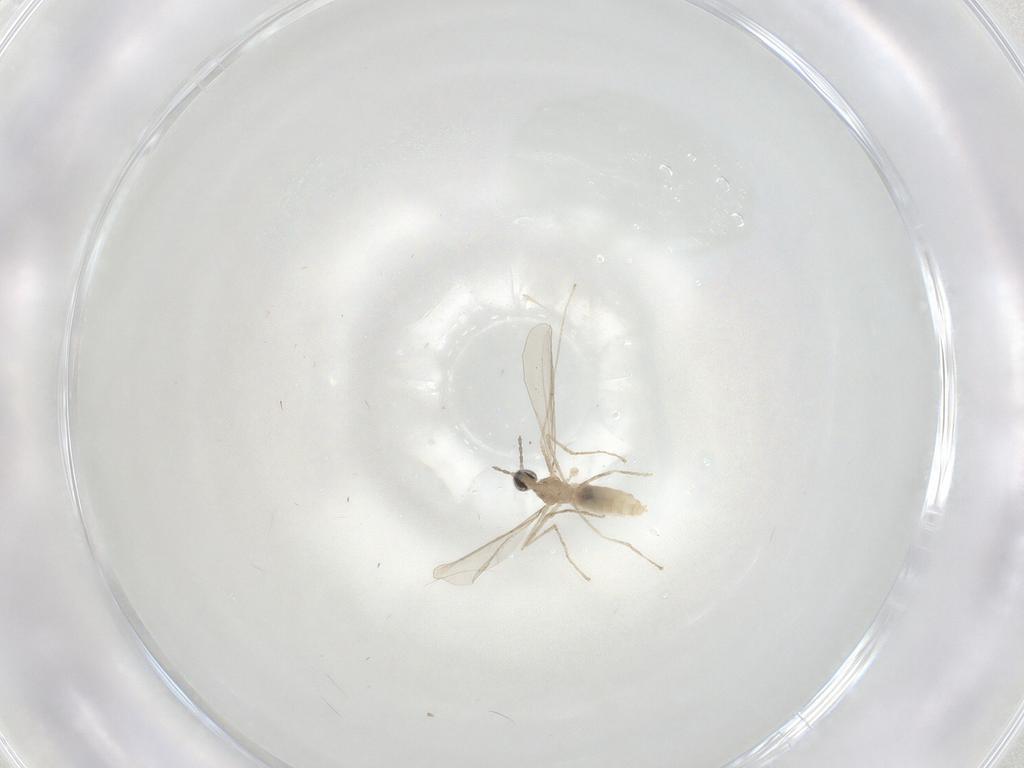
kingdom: Animalia
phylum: Arthropoda
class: Insecta
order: Diptera
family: Cecidomyiidae
